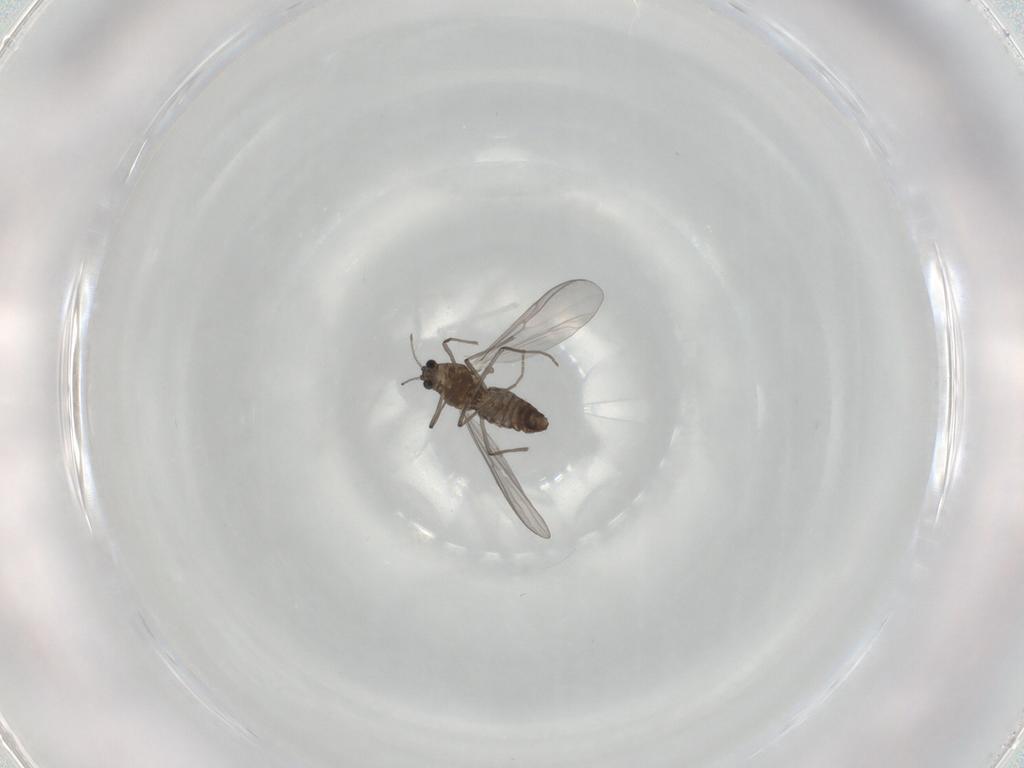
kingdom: Animalia
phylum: Arthropoda
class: Insecta
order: Diptera
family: Chironomidae
